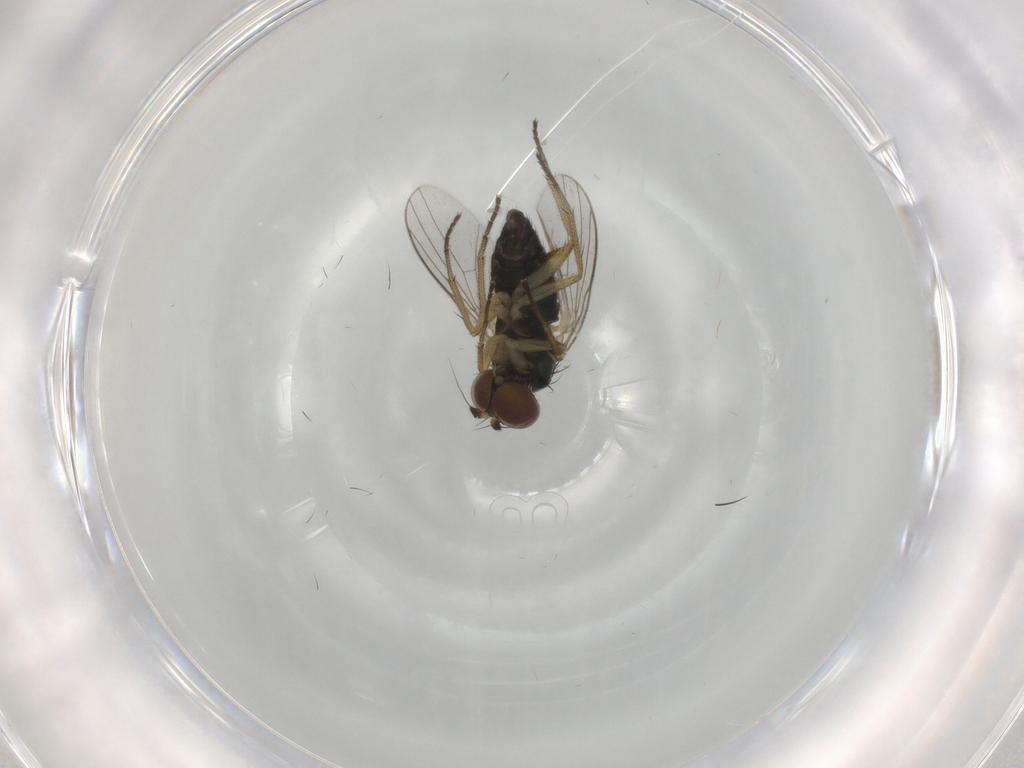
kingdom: Animalia
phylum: Arthropoda
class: Insecta
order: Diptera
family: Dolichopodidae
